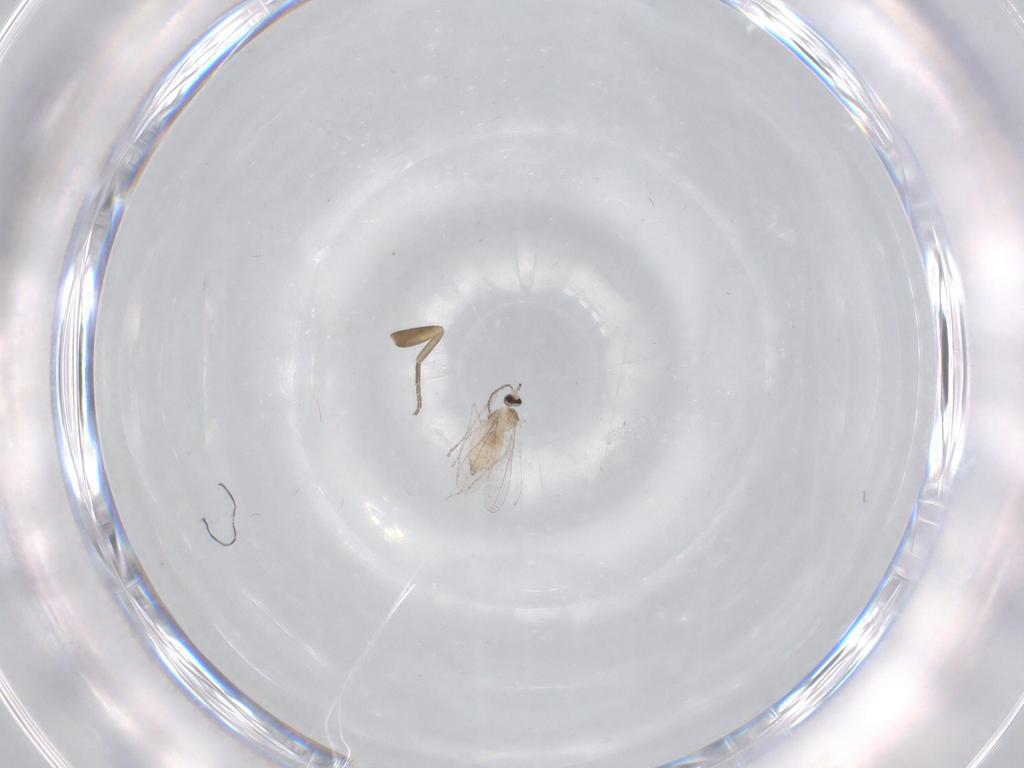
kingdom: Animalia
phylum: Arthropoda
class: Insecta
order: Diptera
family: Cecidomyiidae
